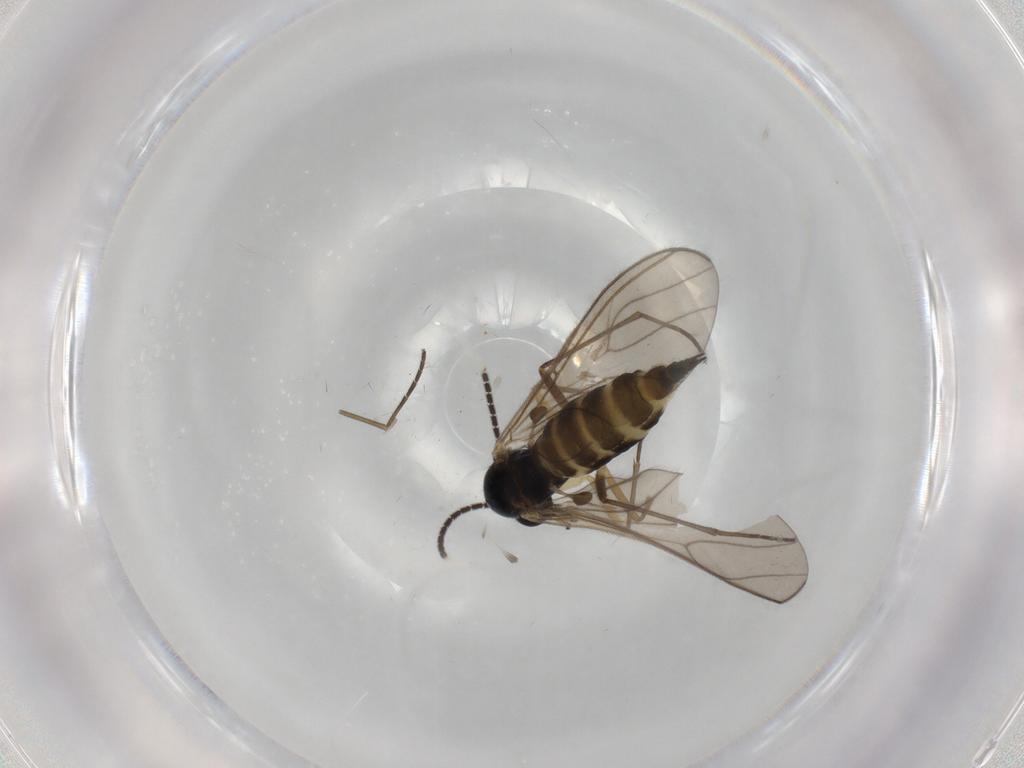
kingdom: Animalia
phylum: Arthropoda
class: Insecta
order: Diptera
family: Sciaridae
